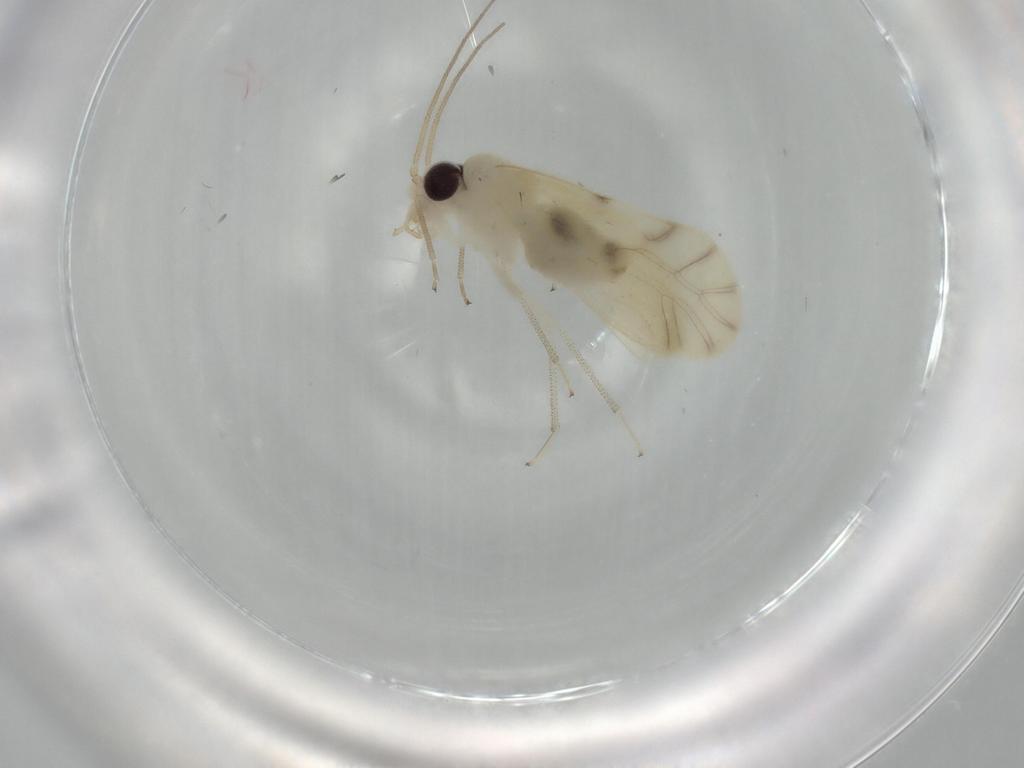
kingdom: Animalia
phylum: Arthropoda
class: Insecta
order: Psocodea
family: Caeciliusidae
